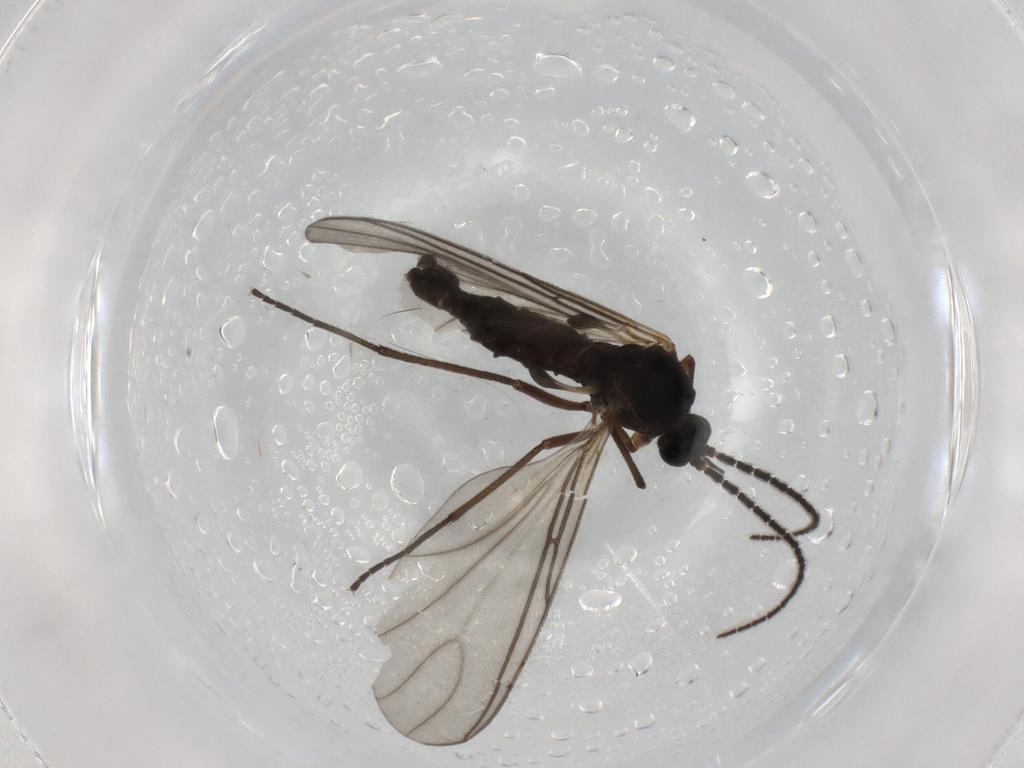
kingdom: Animalia
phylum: Arthropoda
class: Insecta
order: Diptera
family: Sciaridae
